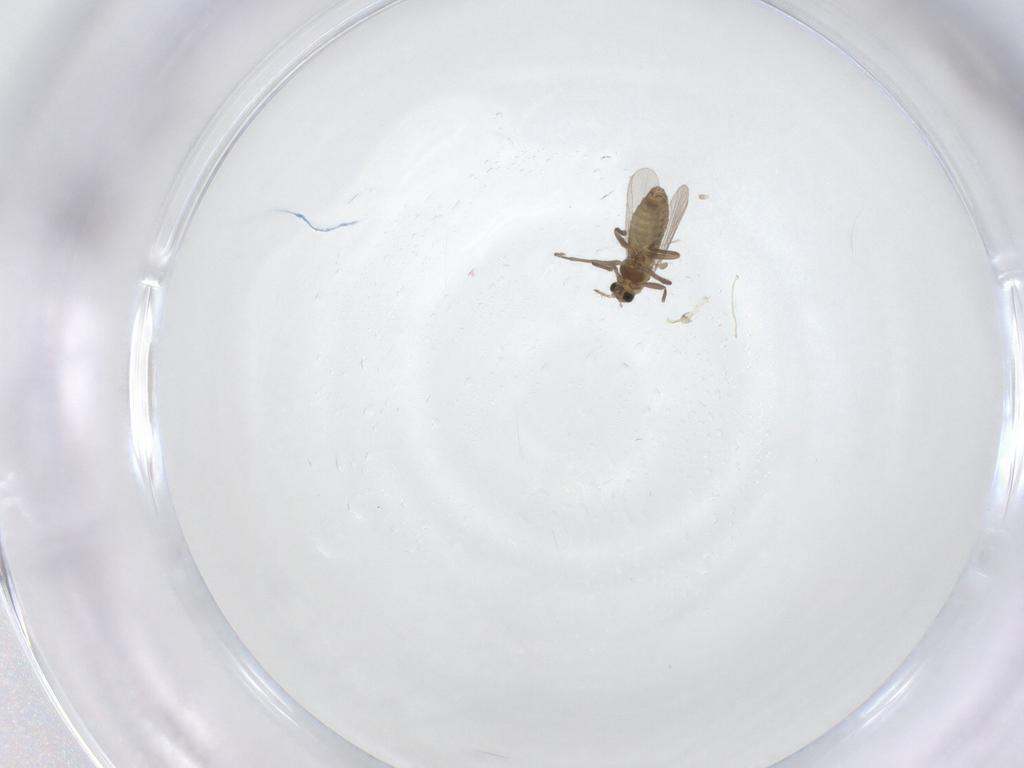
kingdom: Animalia
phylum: Arthropoda
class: Insecta
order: Diptera
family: Chironomidae
